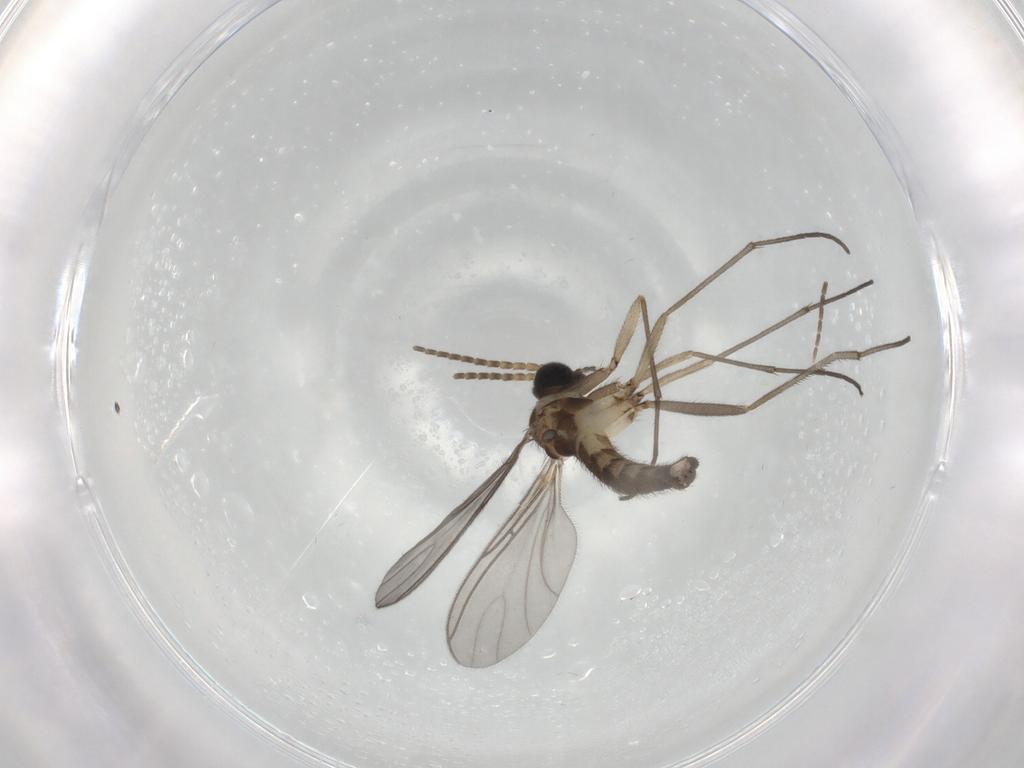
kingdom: Animalia
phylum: Arthropoda
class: Insecta
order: Diptera
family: Sciaridae
